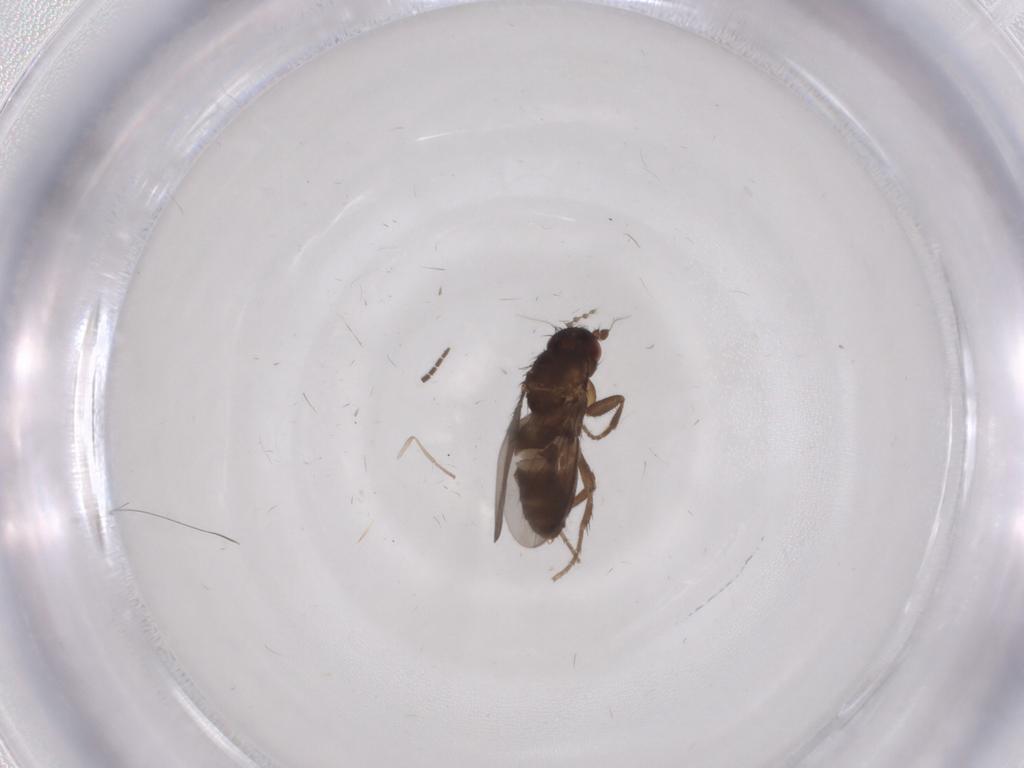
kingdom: Animalia
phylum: Arthropoda
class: Insecta
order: Diptera
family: Sphaeroceridae
